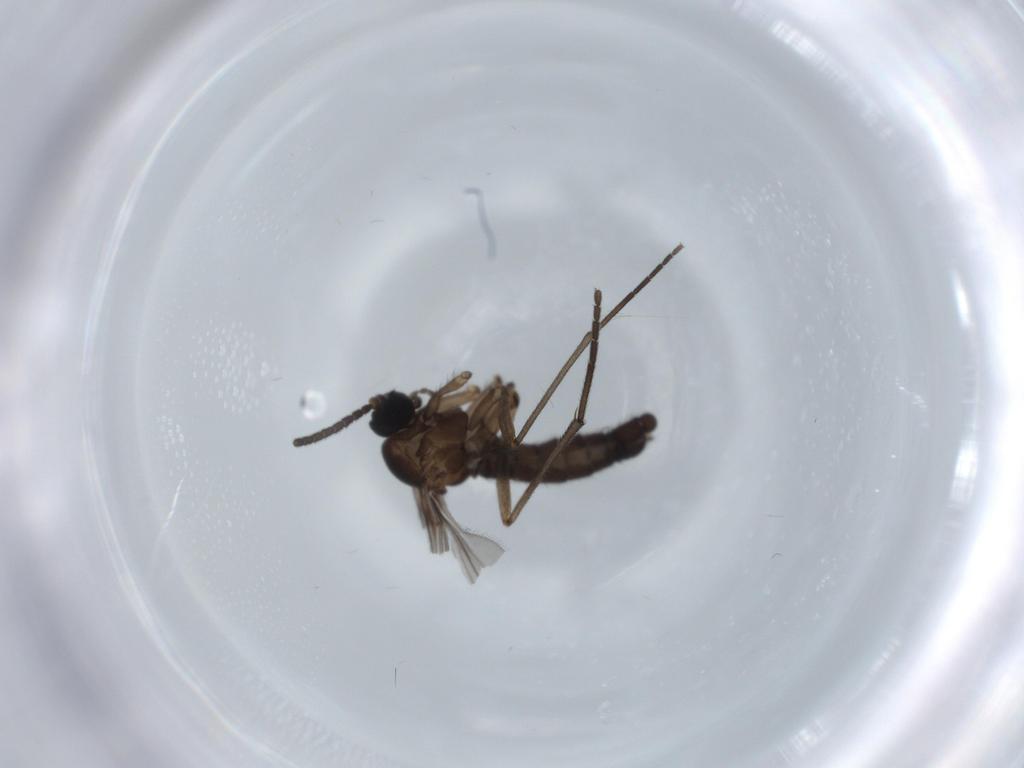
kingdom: Animalia
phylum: Arthropoda
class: Insecta
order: Diptera
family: Sciaridae
